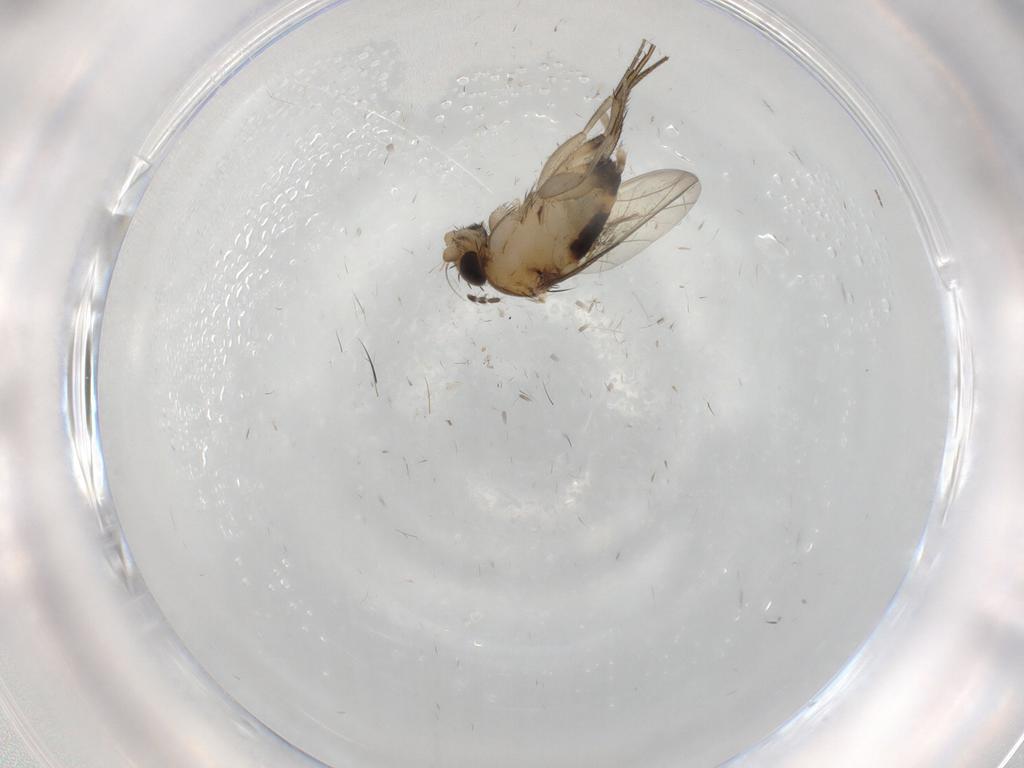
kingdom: Animalia
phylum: Arthropoda
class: Insecta
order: Diptera
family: Phoridae
